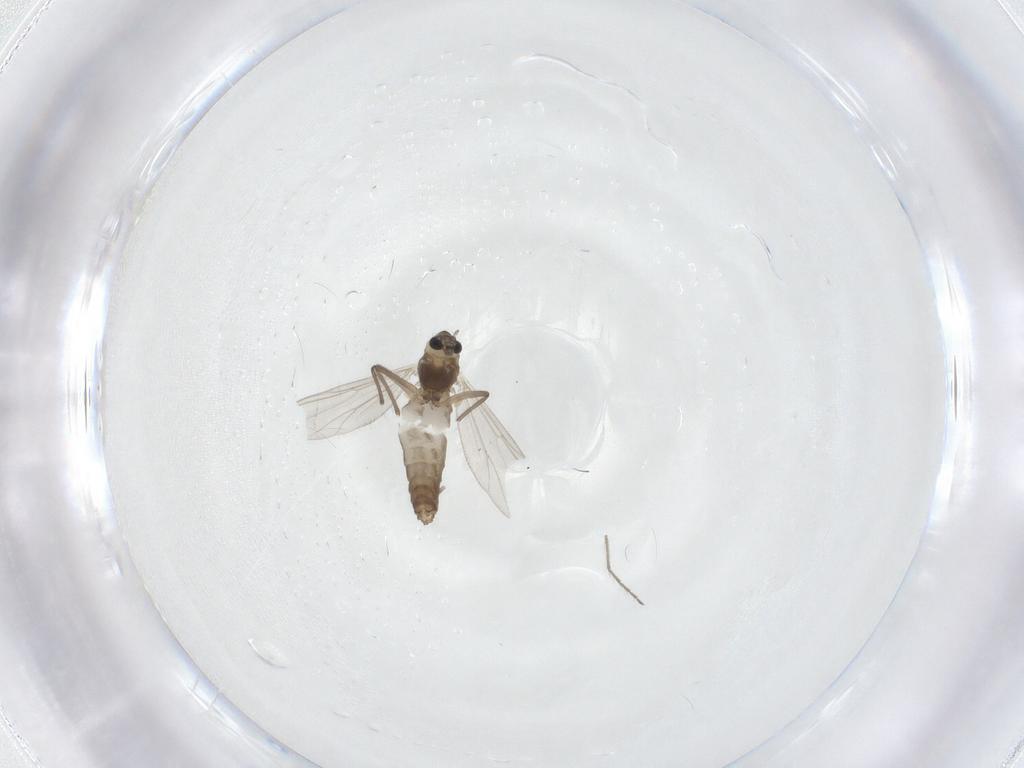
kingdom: Animalia
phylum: Arthropoda
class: Insecta
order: Diptera
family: Chironomidae
